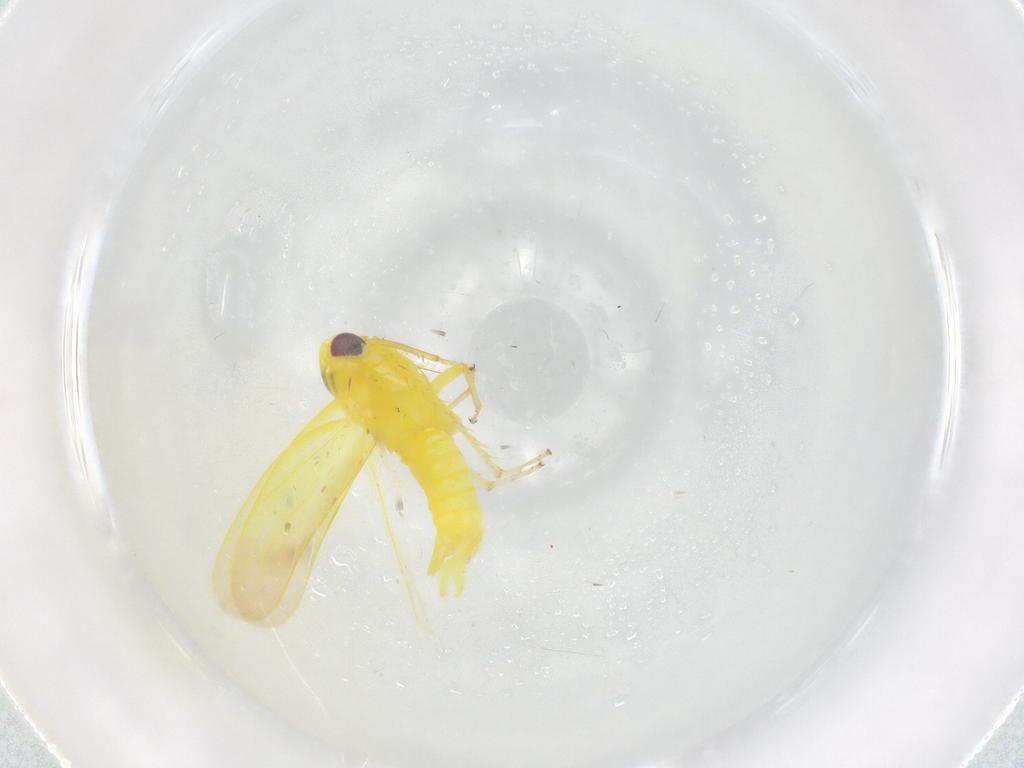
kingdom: Animalia
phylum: Arthropoda
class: Insecta
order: Hemiptera
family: Cicadellidae
